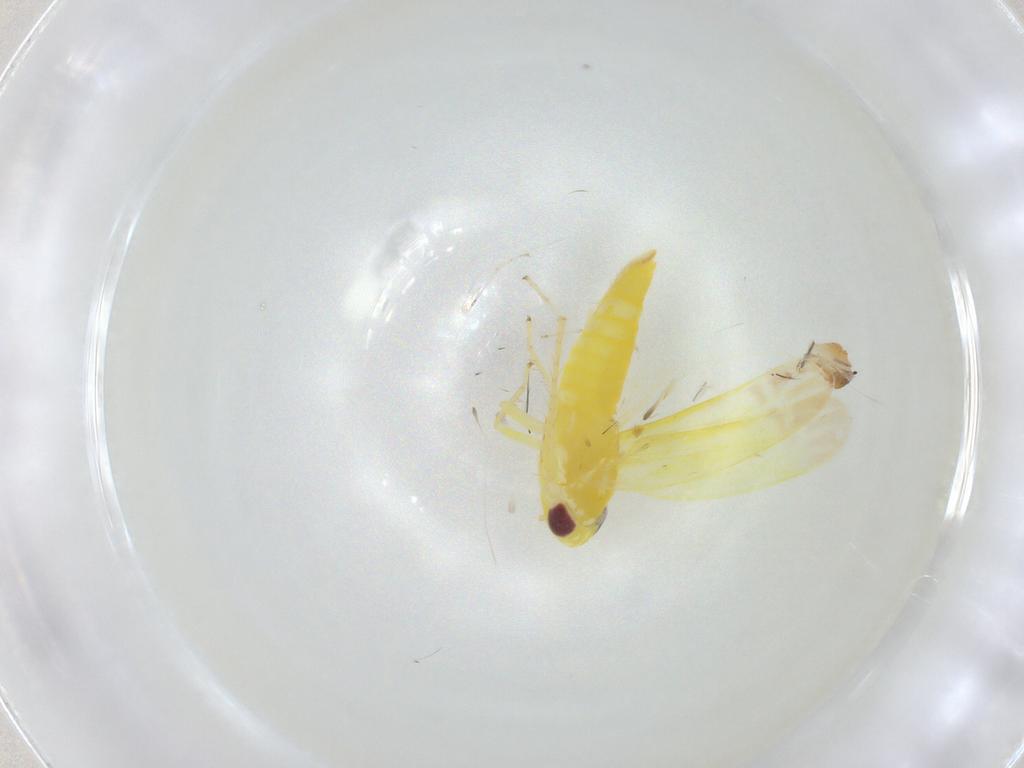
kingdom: Animalia
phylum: Arthropoda
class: Insecta
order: Hemiptera
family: Cicadellidae
